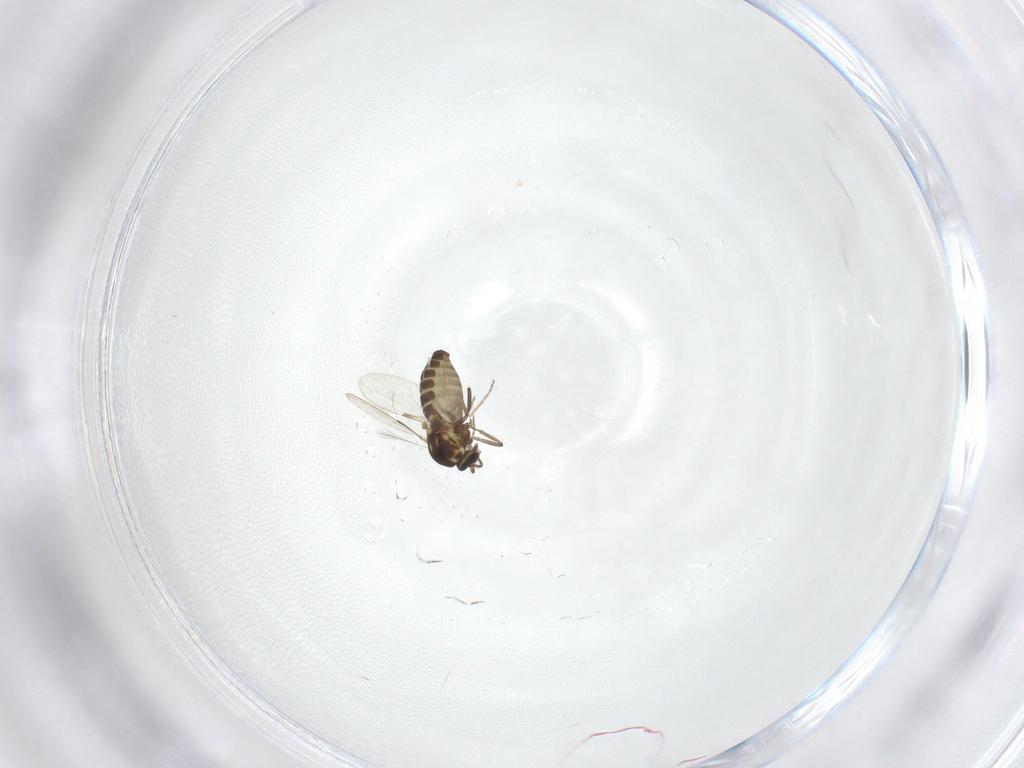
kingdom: Animalia
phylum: Arthropoda
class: Insecta
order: Diptera
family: Ceratopogonidae
